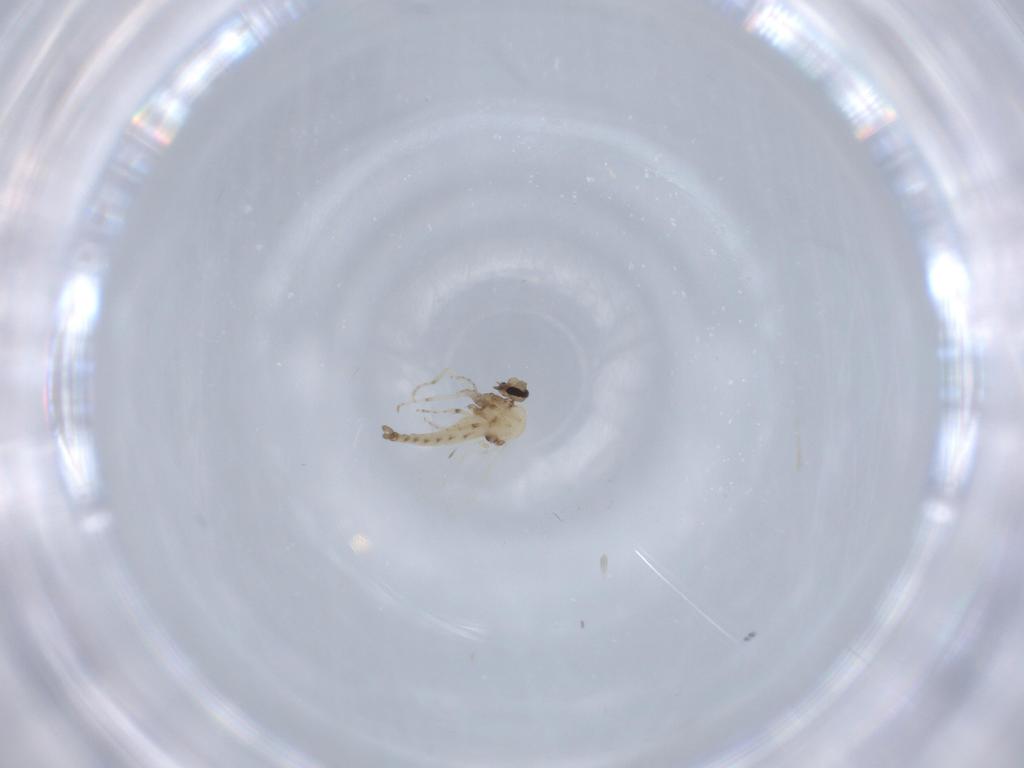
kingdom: Animalia
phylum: Arthropoda
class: Insecta
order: Diptera
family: Ceratopogonidae
